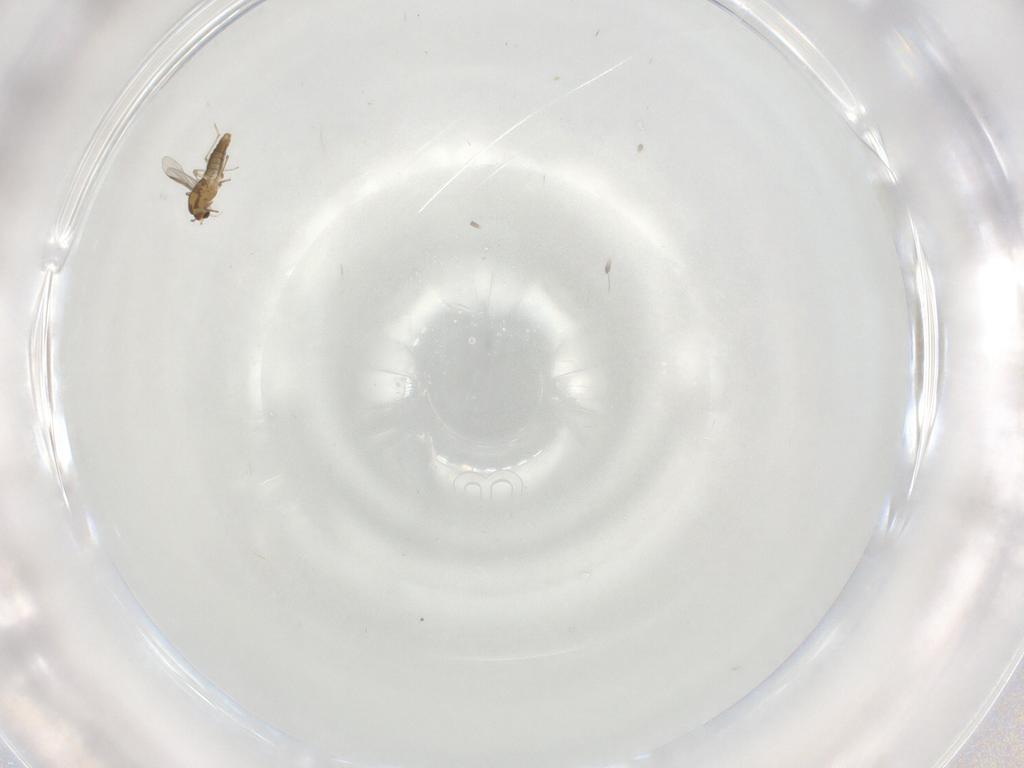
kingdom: Animalia
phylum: Arthropoda
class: Insecta
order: Diptera
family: Chironomidae
